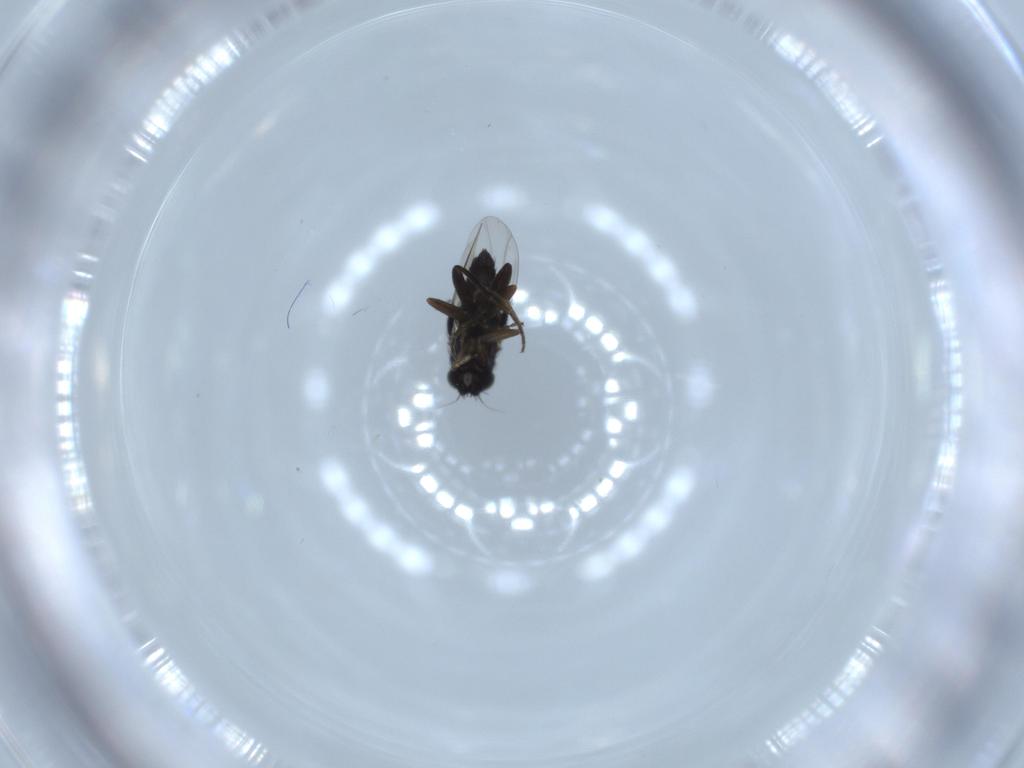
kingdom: Animalia
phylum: Arthropoda
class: Insecta
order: Diptera
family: Phoridae
